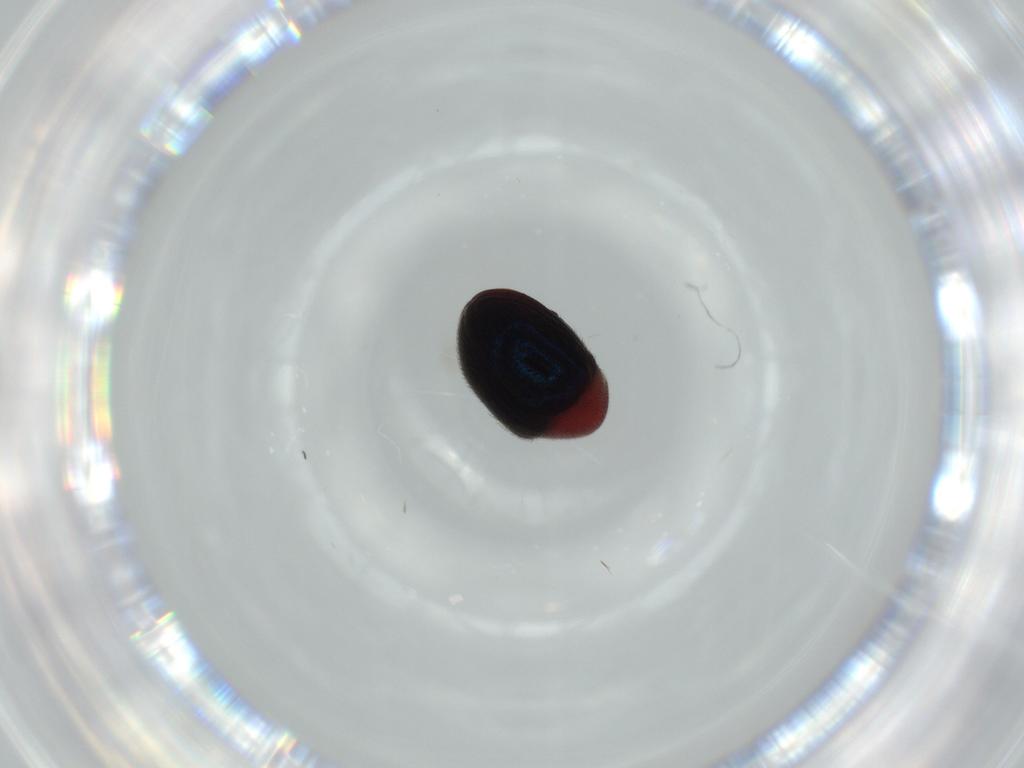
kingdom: Animalia
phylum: Arthropoda
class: Insecta
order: Coleoptera
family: Ptinidae
